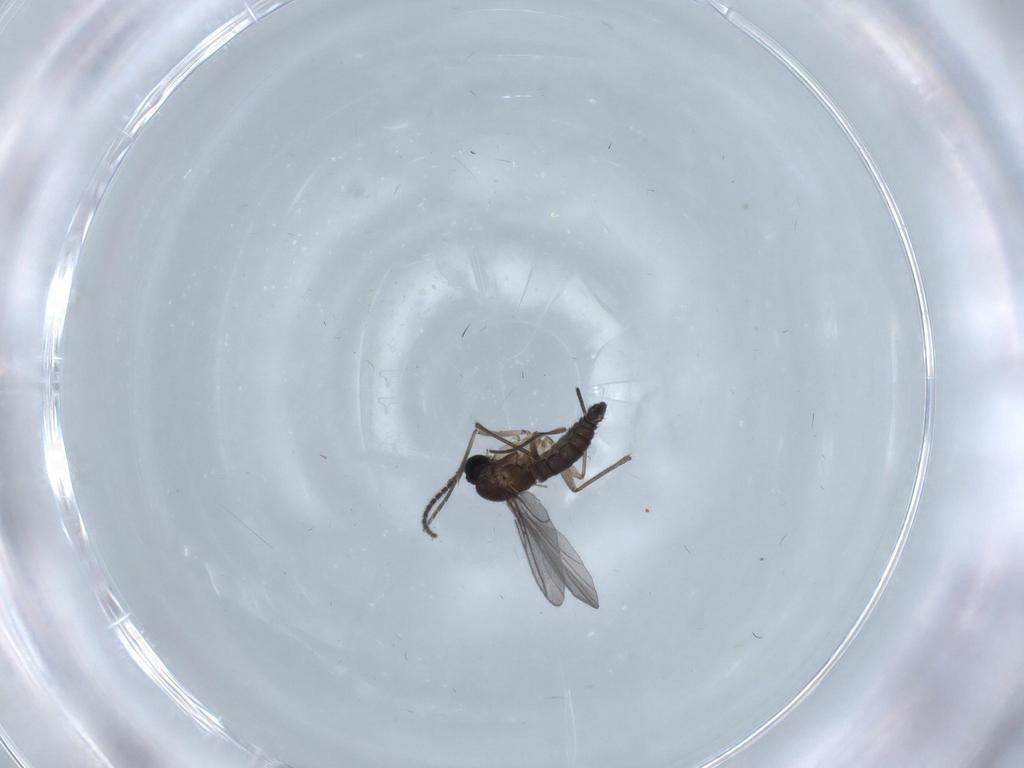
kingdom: Animalia
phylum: Arthropoda
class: Insecta
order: Diptera
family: Sciaridae
